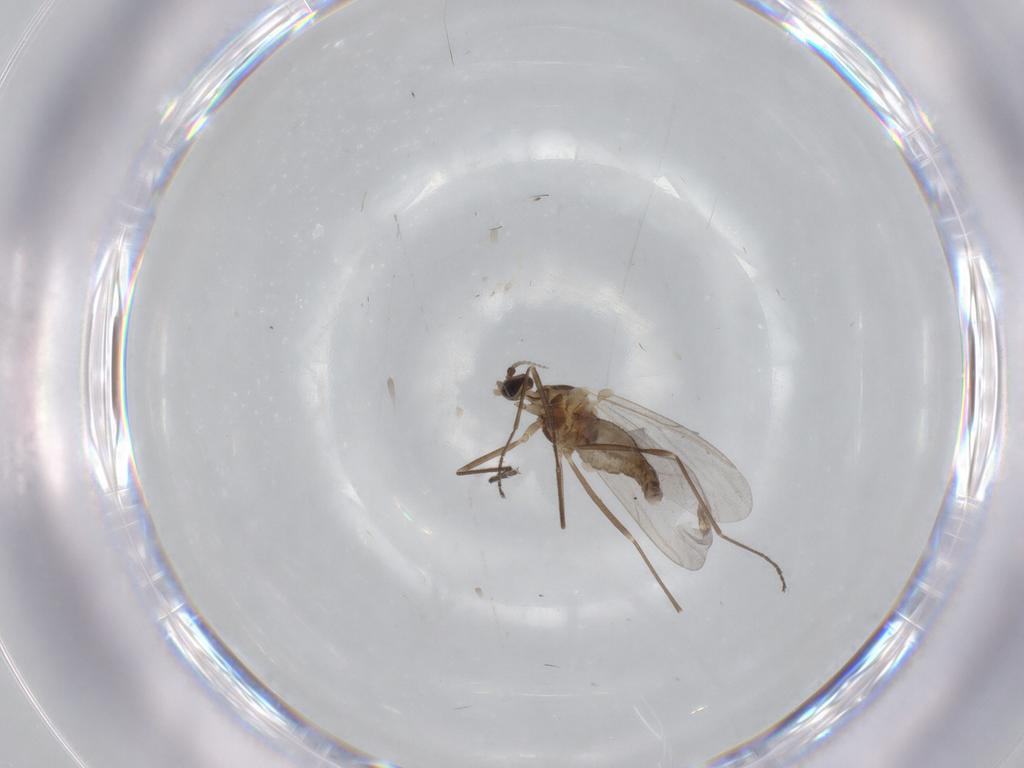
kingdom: Animalia
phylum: Arthropoda
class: Insecta
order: Diptera
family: Cecidomyiidae
